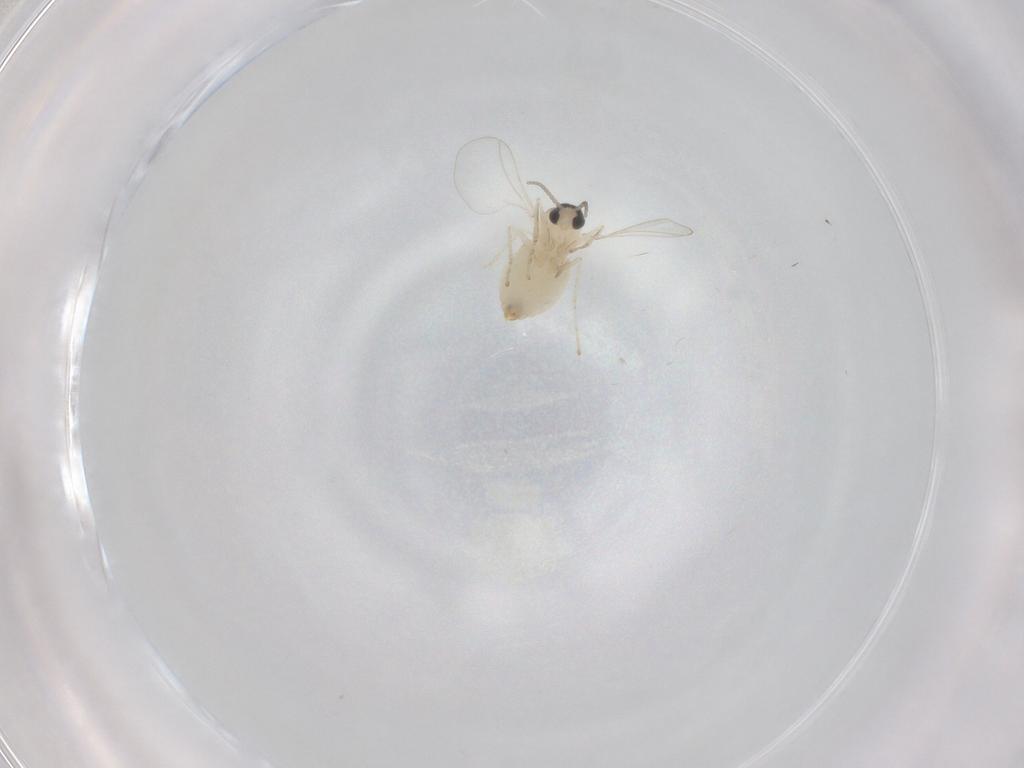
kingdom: Animalia
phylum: Arthropoda
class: Insecta
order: Diptera
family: Cecidomyiidae
